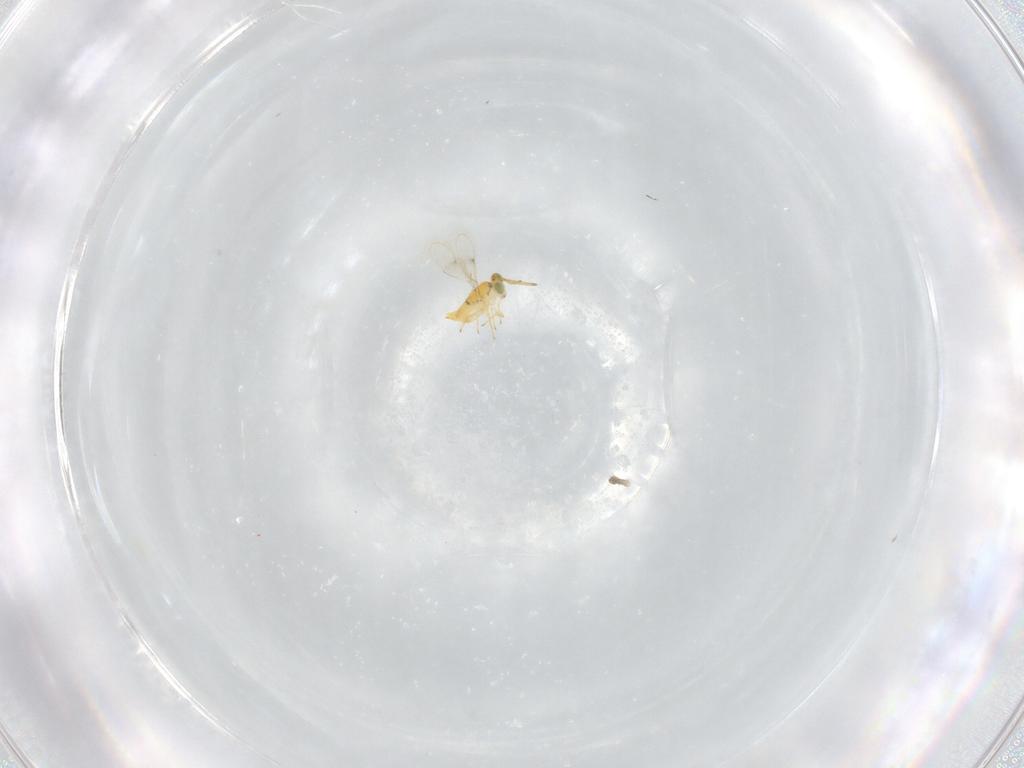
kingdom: Animalia
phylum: Arthropoda
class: Insecta
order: Hymenoptera
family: Aphelinidae
